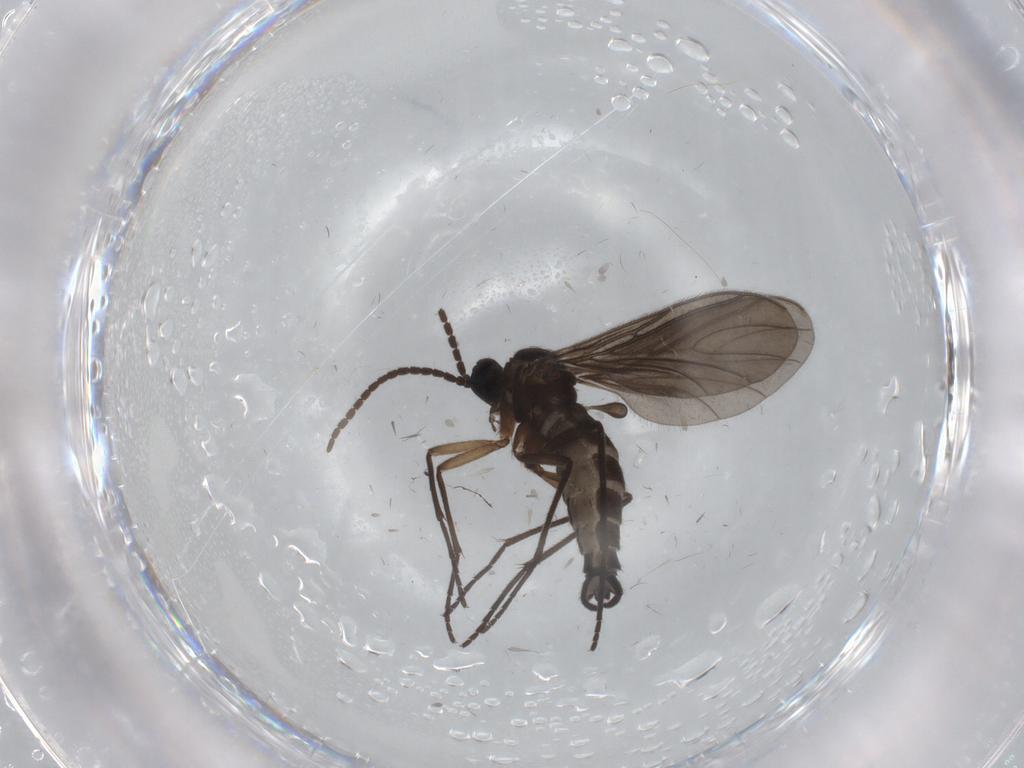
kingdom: Animalia
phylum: Arthropoda
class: Insecta
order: Diptera
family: Sciaridae
